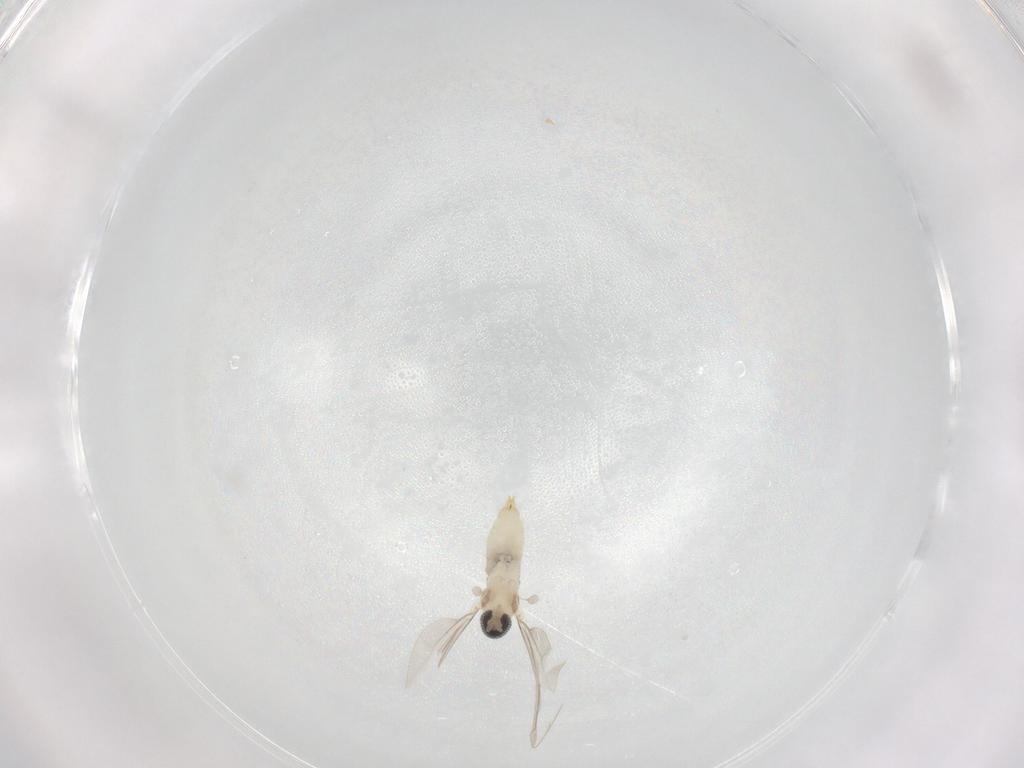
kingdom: Animalia
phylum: Arthropoda
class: Insecta
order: Diptera
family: Cecidomyiidae
